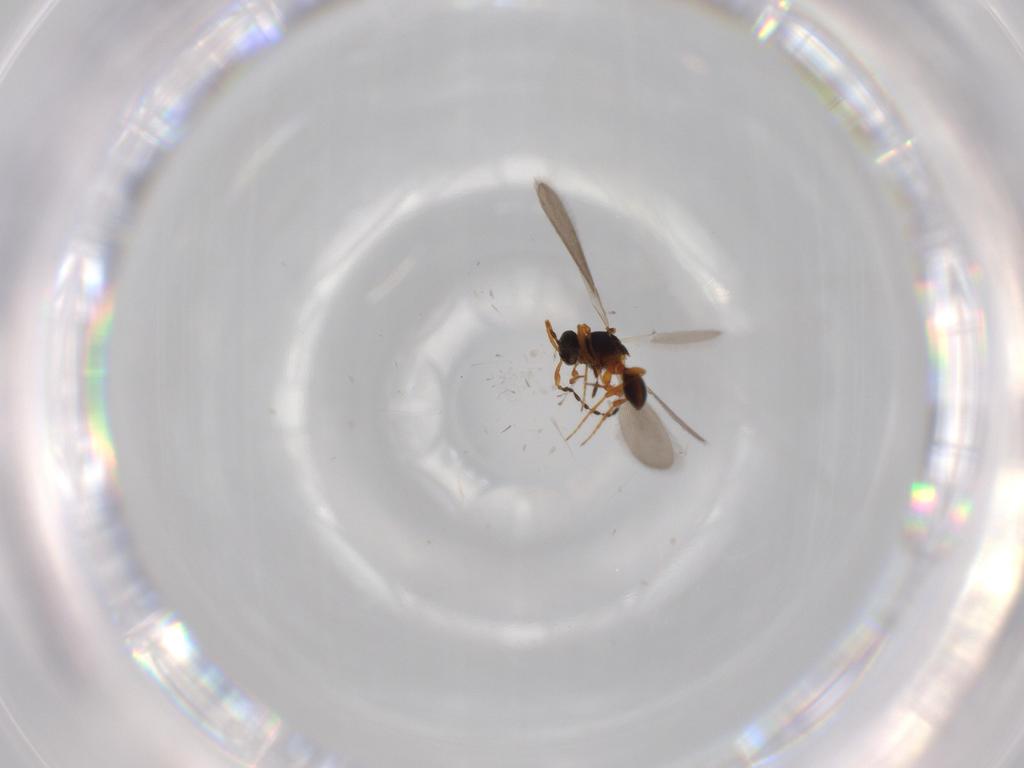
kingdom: Animalia
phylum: Arthropoda
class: Insecta
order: Hymenoptera
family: Platygastridae
